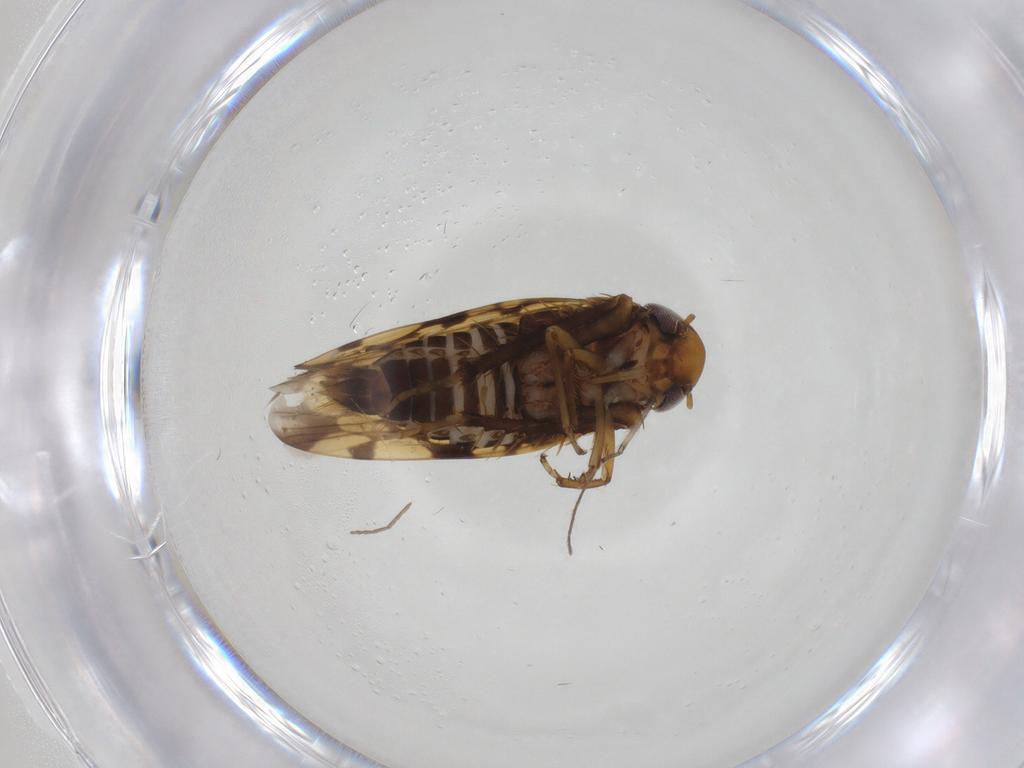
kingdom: Animalia
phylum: Arthropoda
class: Insecta
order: Hemiptera
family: Cicadellidae
